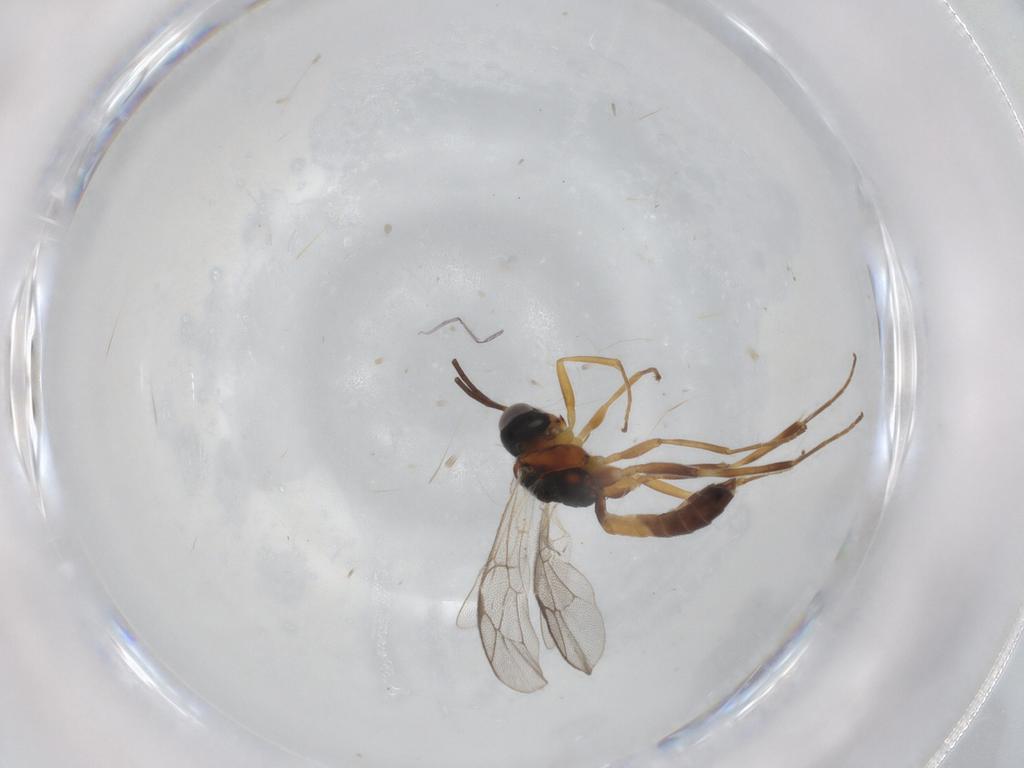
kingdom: Animalia
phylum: Arthropoda
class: Insecta
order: Hymenoptera
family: Ichneumonidae
